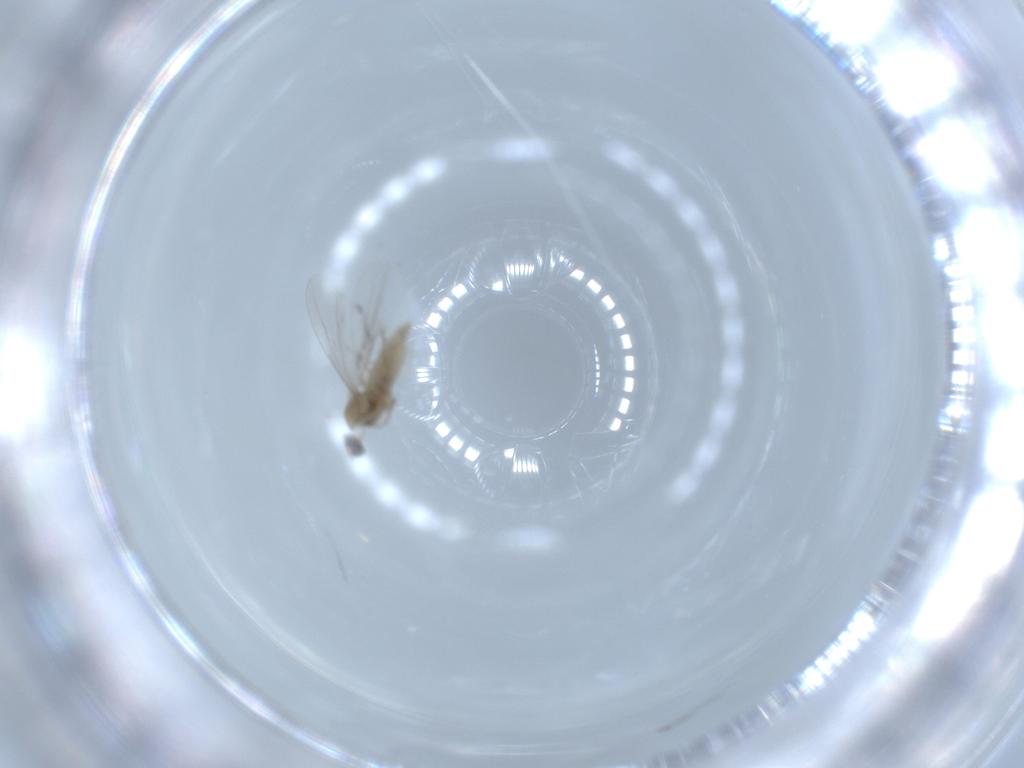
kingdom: Animalia
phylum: Arthropoda
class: Insecta
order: Diptera
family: Cecidomyiidae
